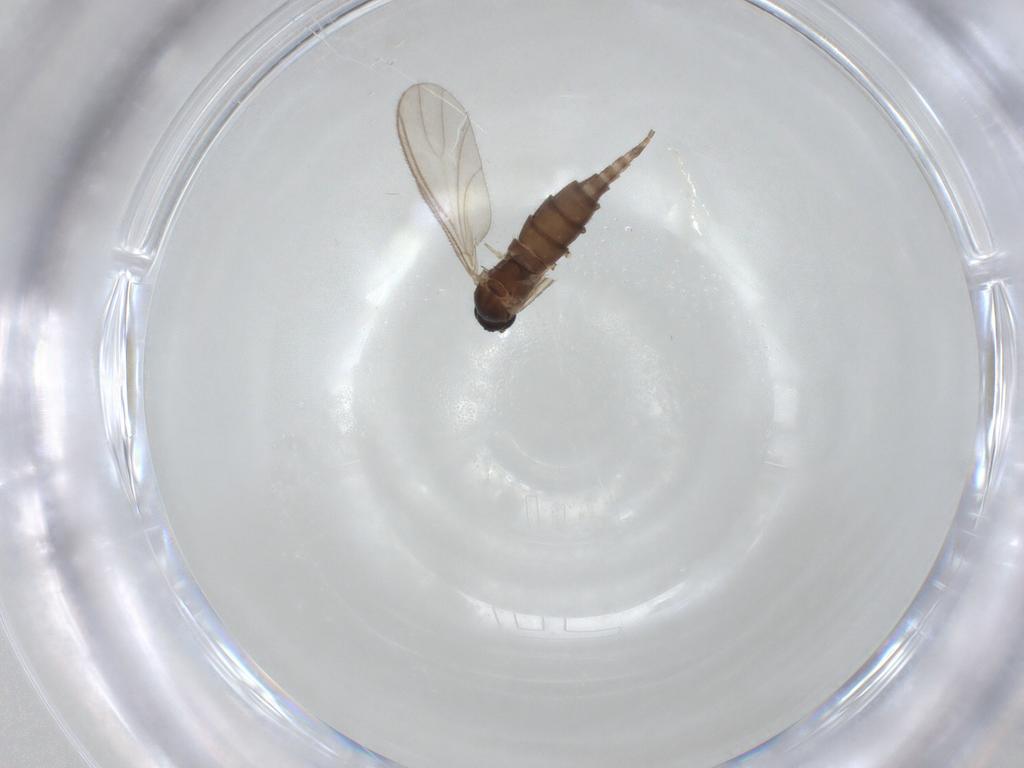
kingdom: Animalia
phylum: Arthropoda
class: Insecta
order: Diptera
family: Sciaridae
